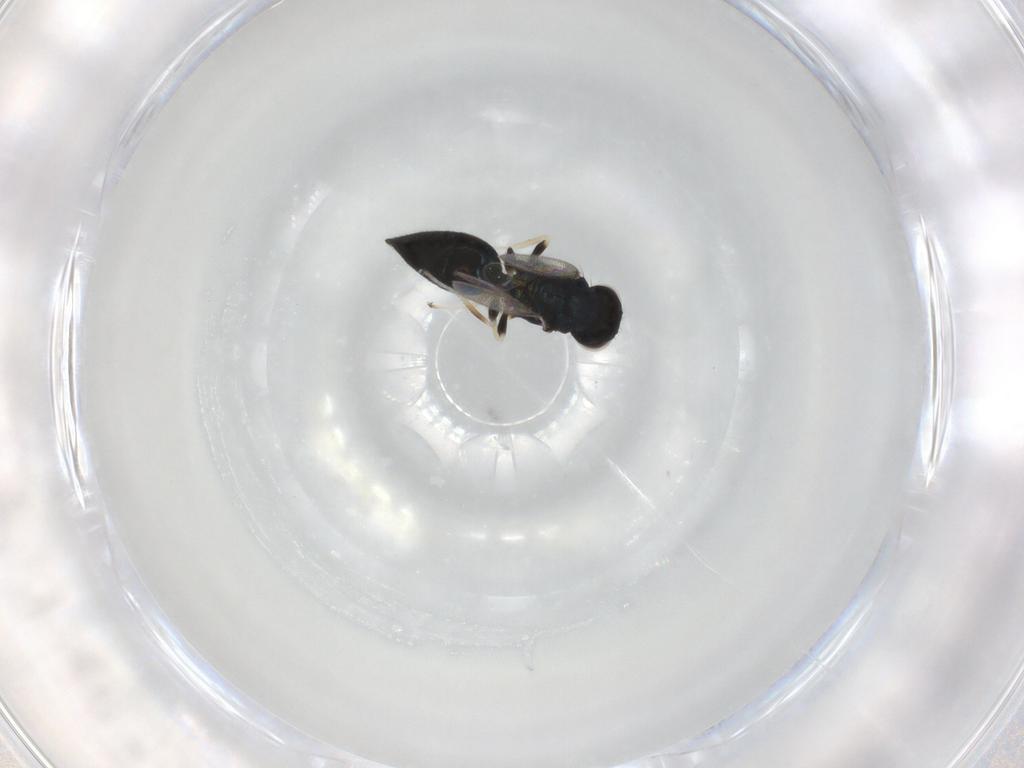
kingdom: Animalia
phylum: Arthropoda
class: Insecta
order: Hymenoptera
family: Eulophidae
